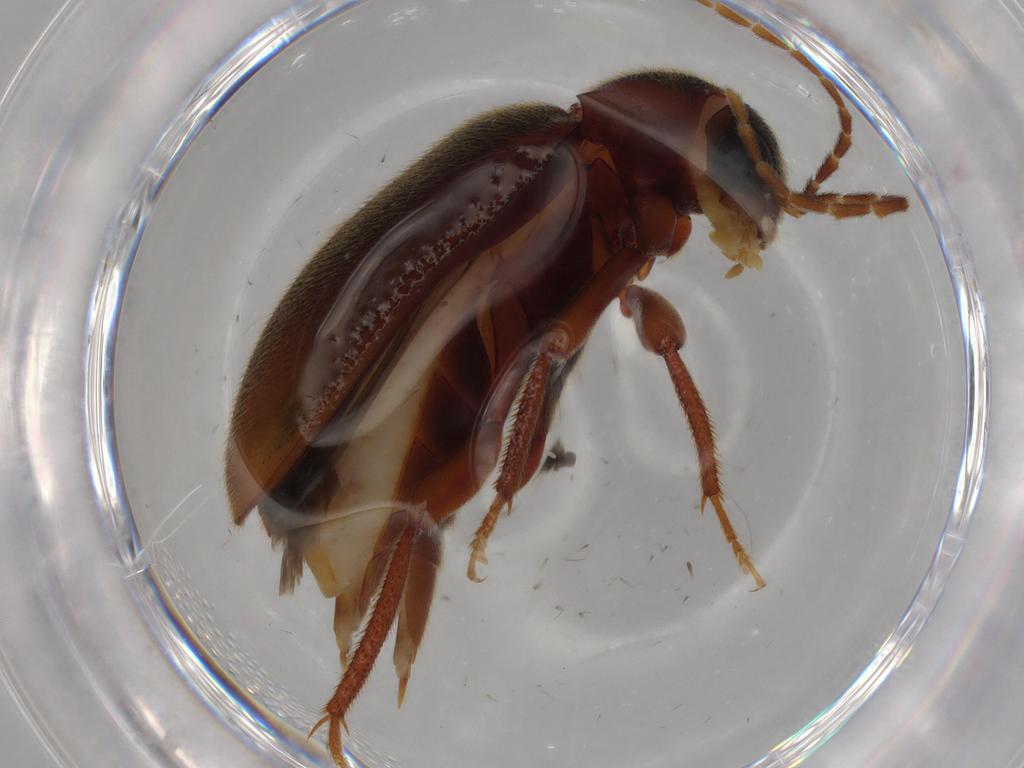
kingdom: Animalia
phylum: Arthropoda
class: Insecta
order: Coleoptera
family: Ptilodactylidae
